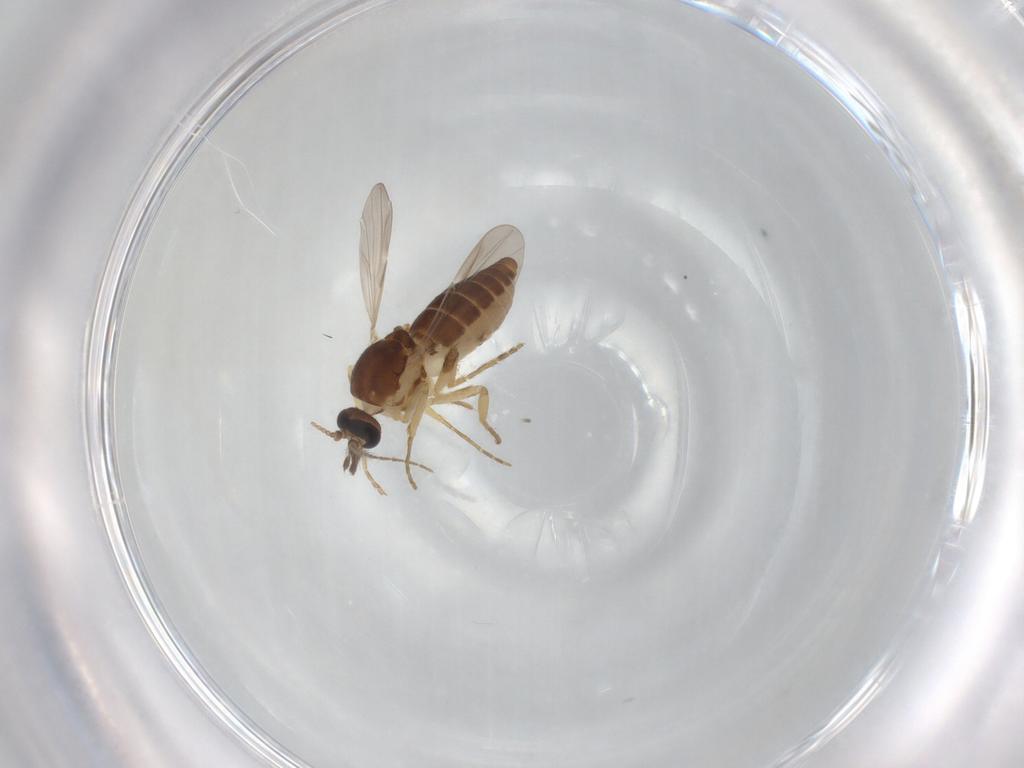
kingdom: Animalia
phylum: Arthropoda
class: Insecta
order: Diptera
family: Ceratopogonidae
